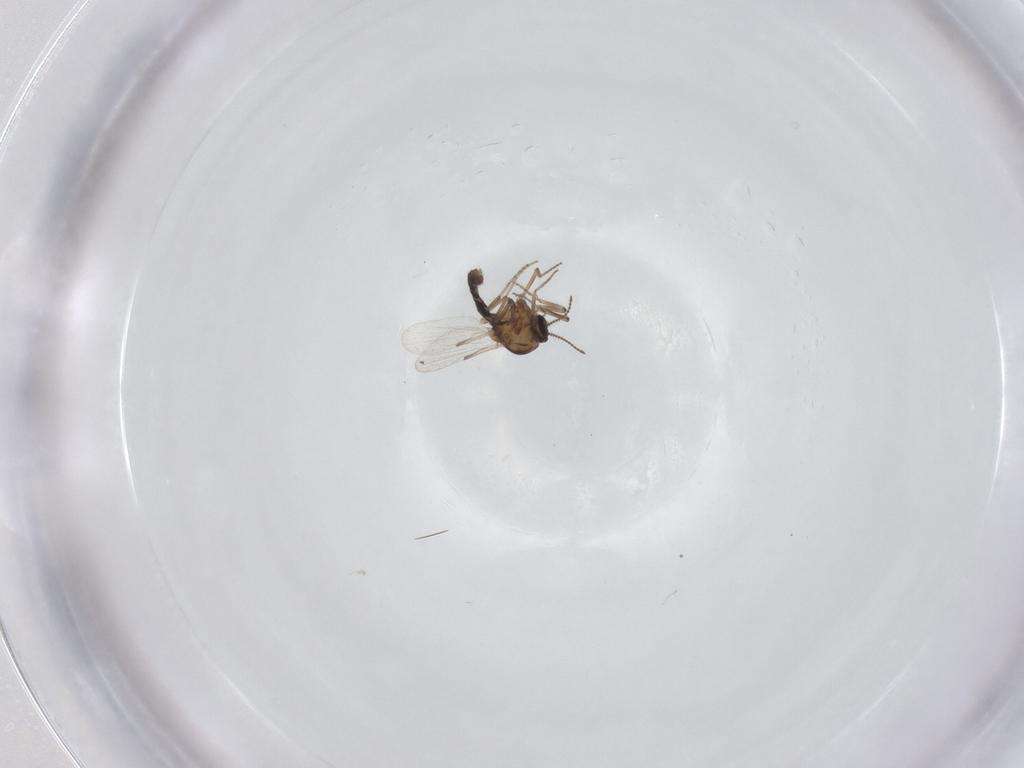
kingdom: Animalia
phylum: Arthropoda
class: Insecta
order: Diptera
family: Ceratopogonidae
